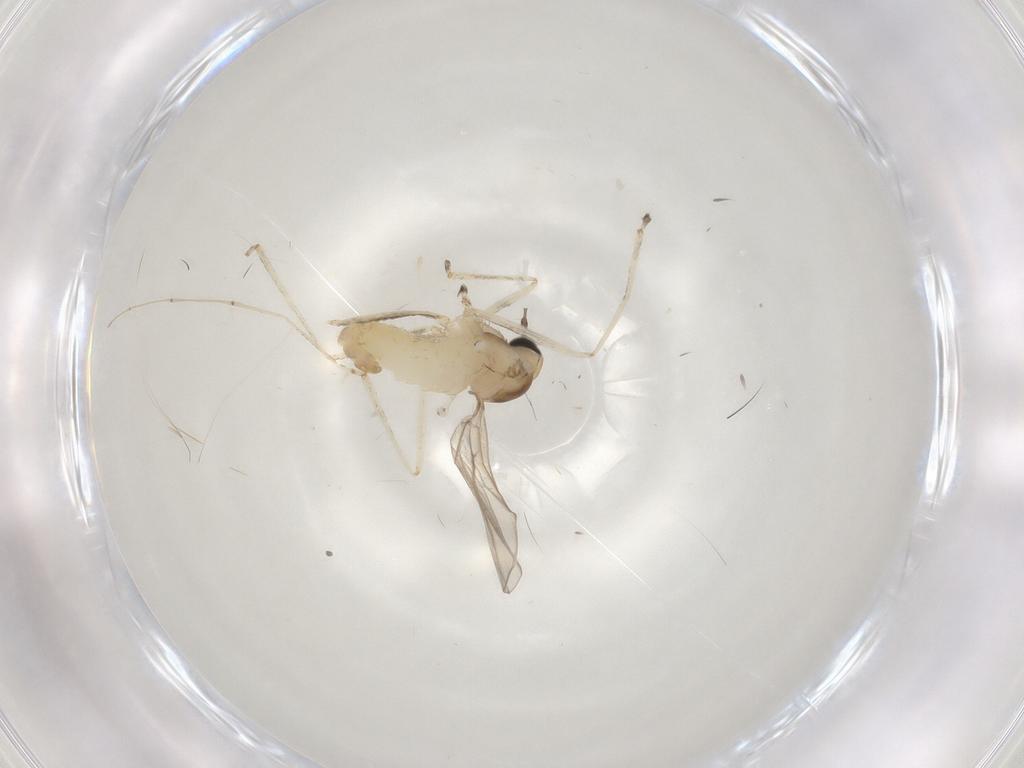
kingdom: Animalia
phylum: Arthropoda
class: Insecta
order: Diptera
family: Cecidomyiidae
